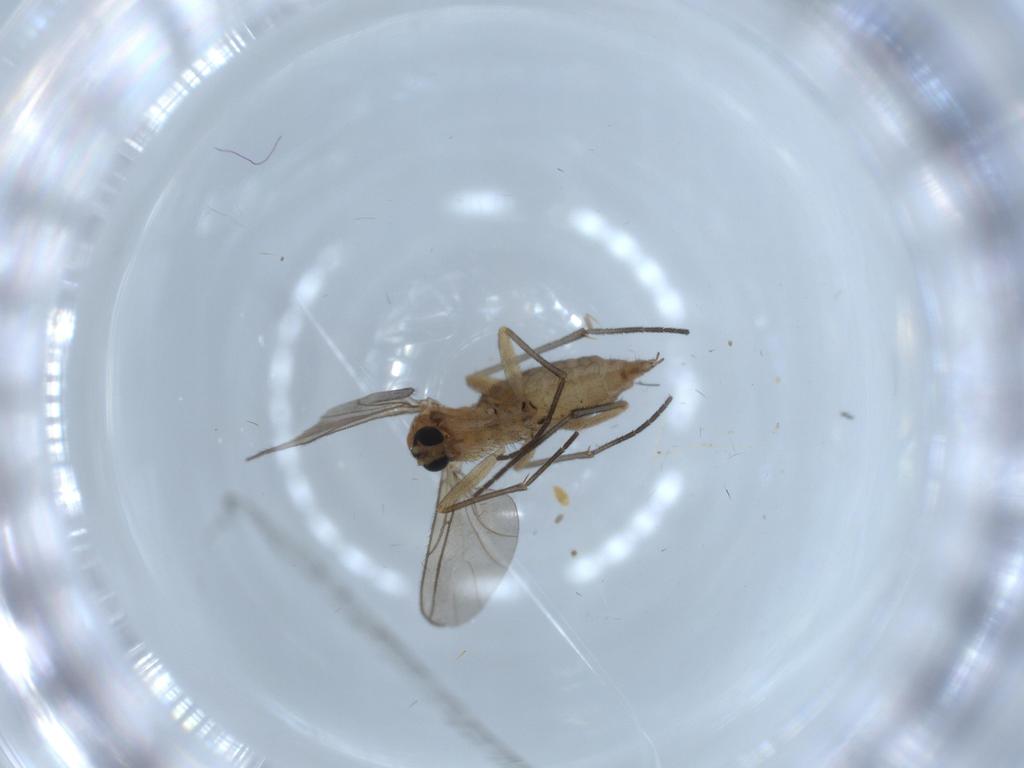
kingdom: Animalia
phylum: Arthropoda
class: Insecta
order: Diptera
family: Sciaridae
